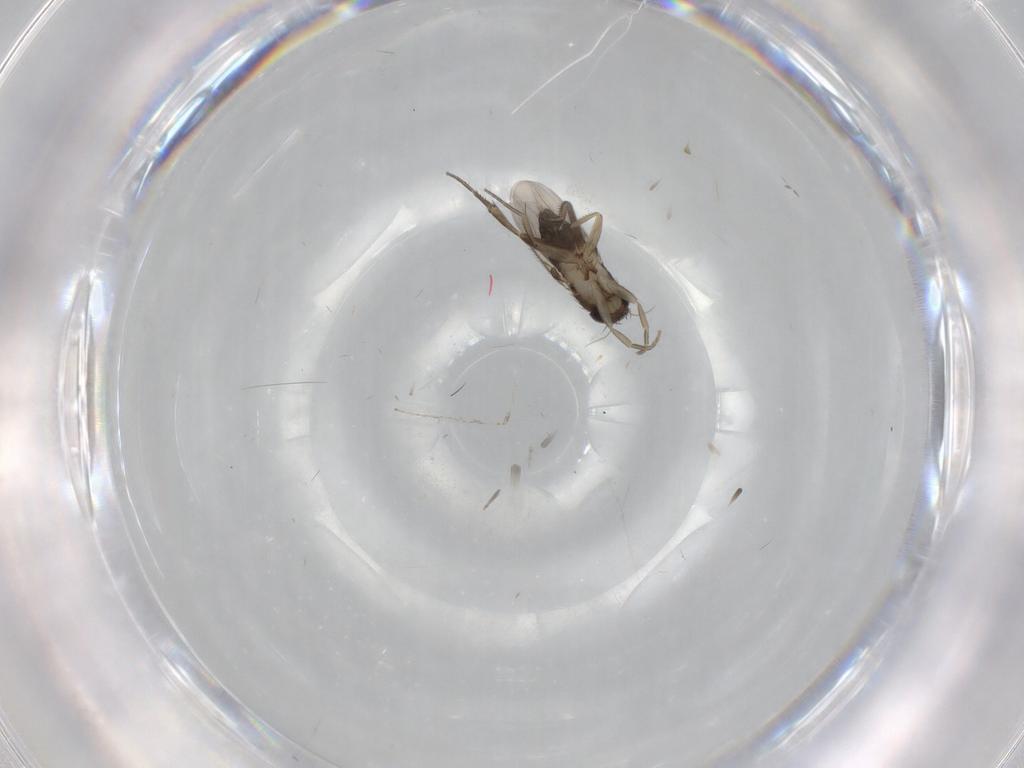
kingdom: Animalia
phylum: Arthropoda
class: Insecta
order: Diptera
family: Phoridae
